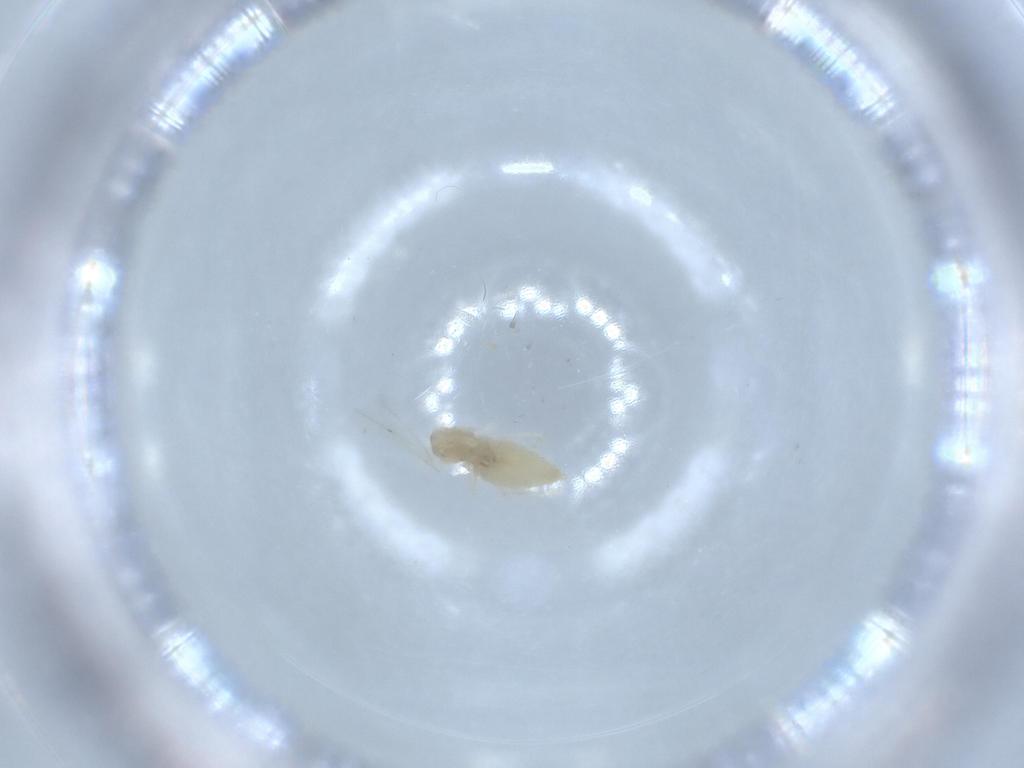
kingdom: Animalia
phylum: Arthropoda
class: Insecta
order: Diptera
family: Cecidomyiidae
